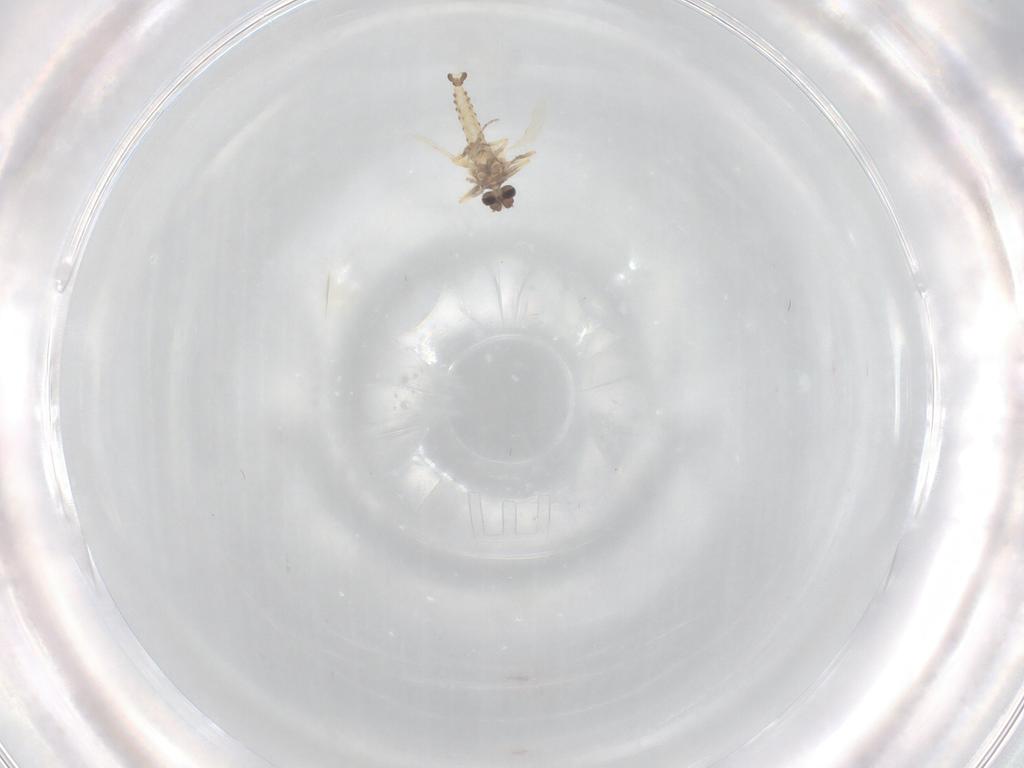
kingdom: Animalia
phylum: Arthropoda
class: Insecta
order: Diptera
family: Ceratopogonidae
